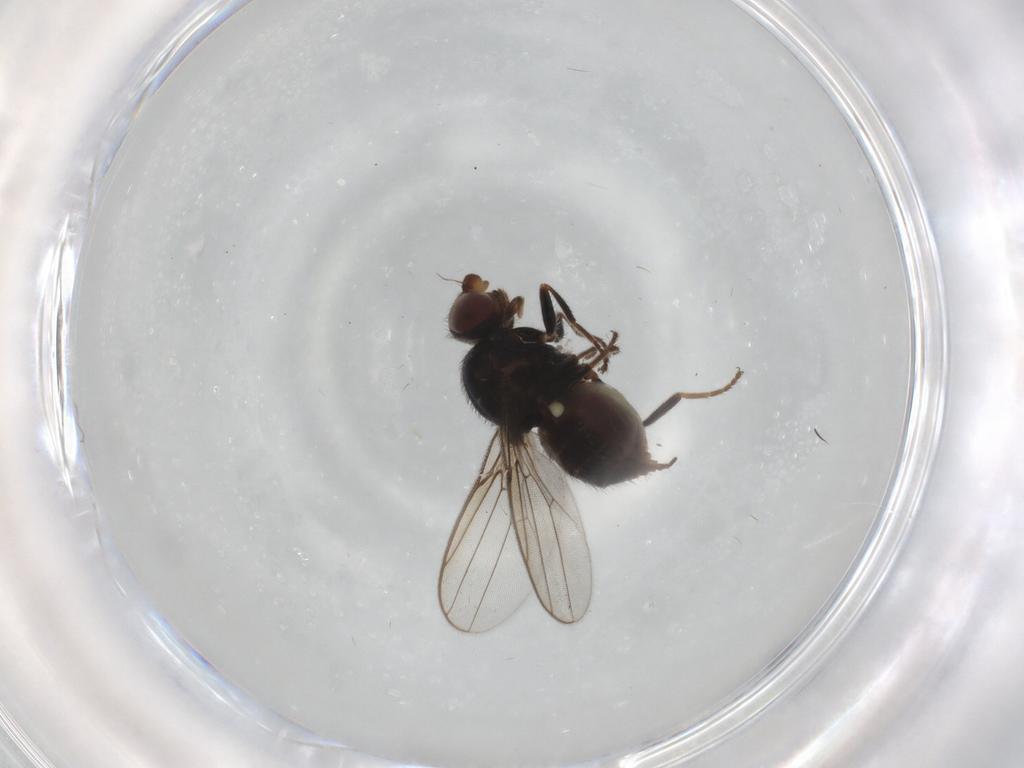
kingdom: Animalia
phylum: Arthropoda
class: Insecta
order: Diptera
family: Chloropidae
